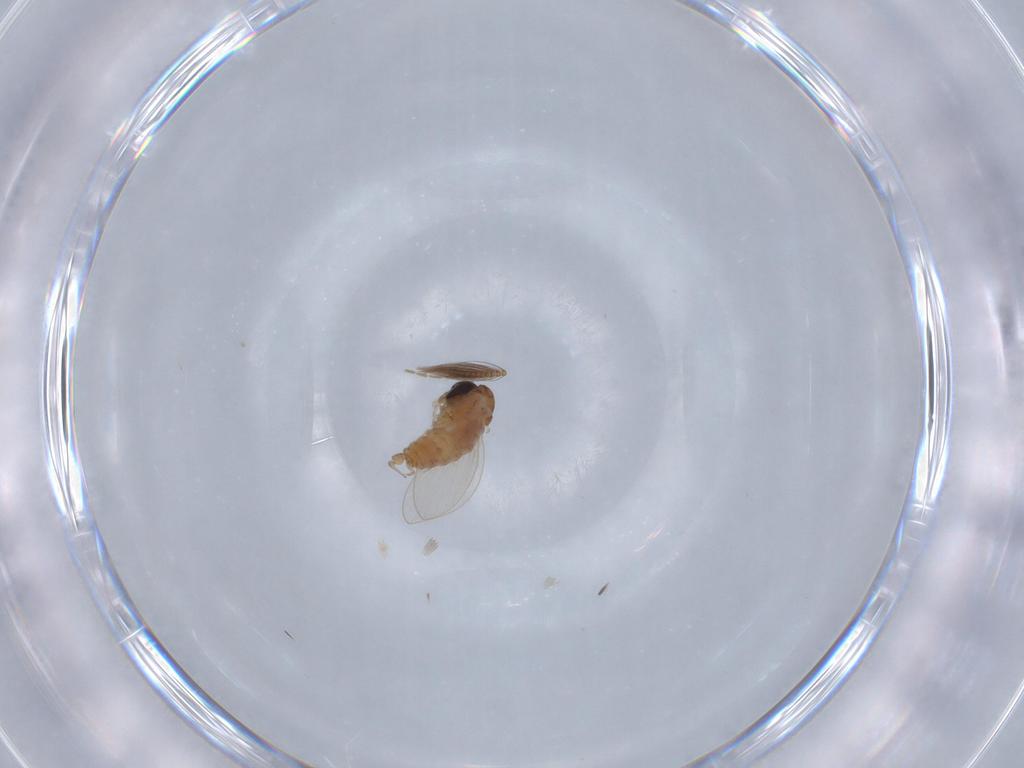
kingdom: Animalia
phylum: Arthropoda
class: Insecta
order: Diptera
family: Psychodidae
